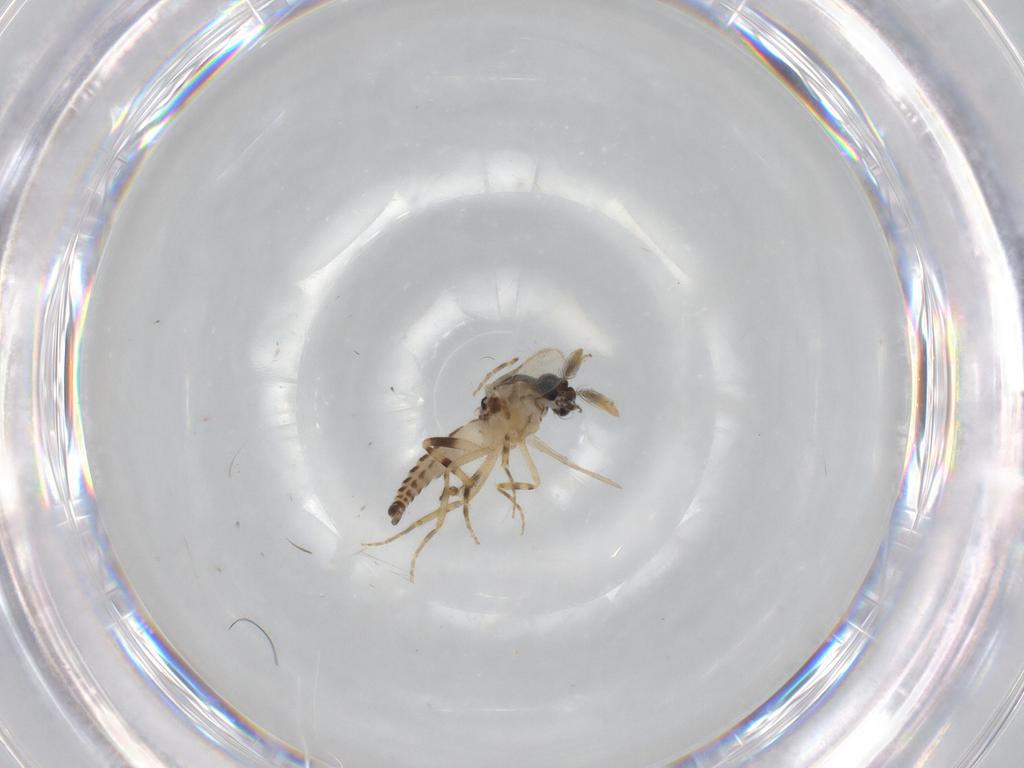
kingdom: Animalia
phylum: Arthropoda
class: Insecta
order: Diptera
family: Ceratopogonidae
